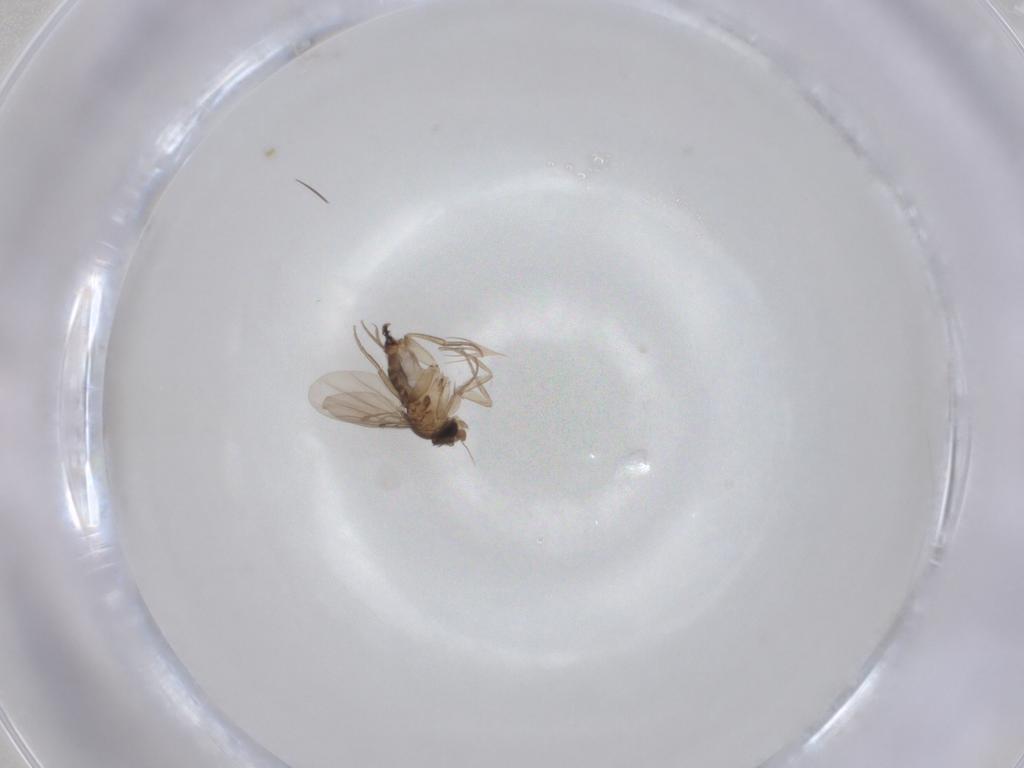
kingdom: Animalia
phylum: Arthropoda
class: Insecta
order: Diptera
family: Phoridae
